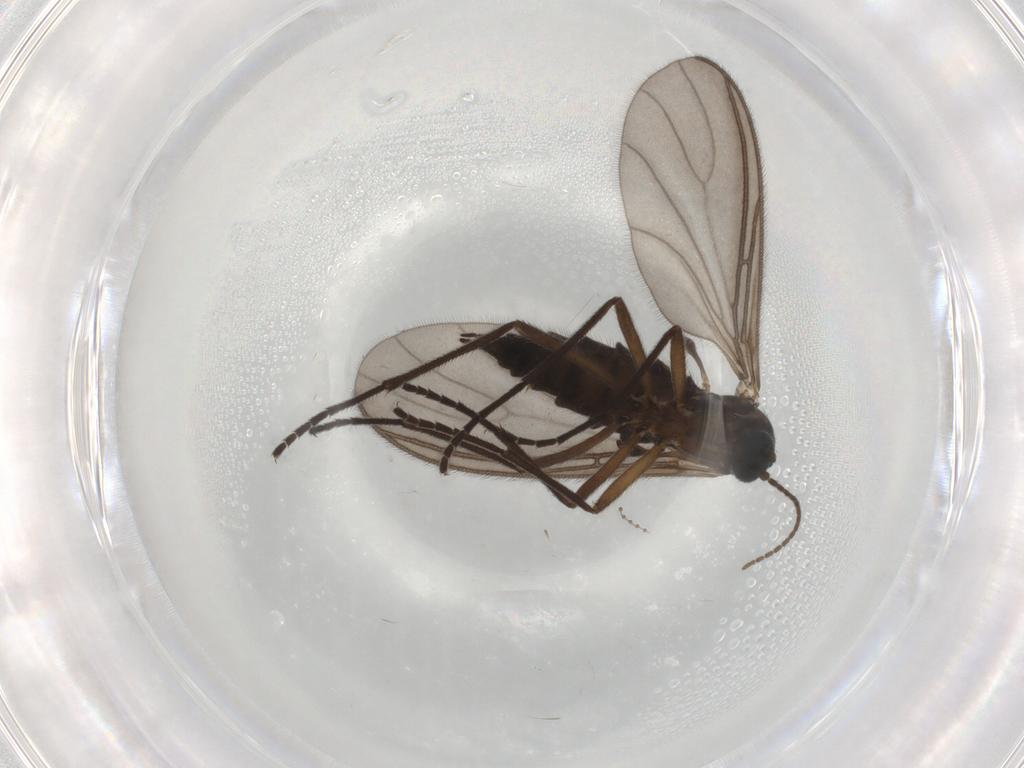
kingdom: Animalia
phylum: Arthropoda
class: Insecta
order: Diptera
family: Sciaridae
